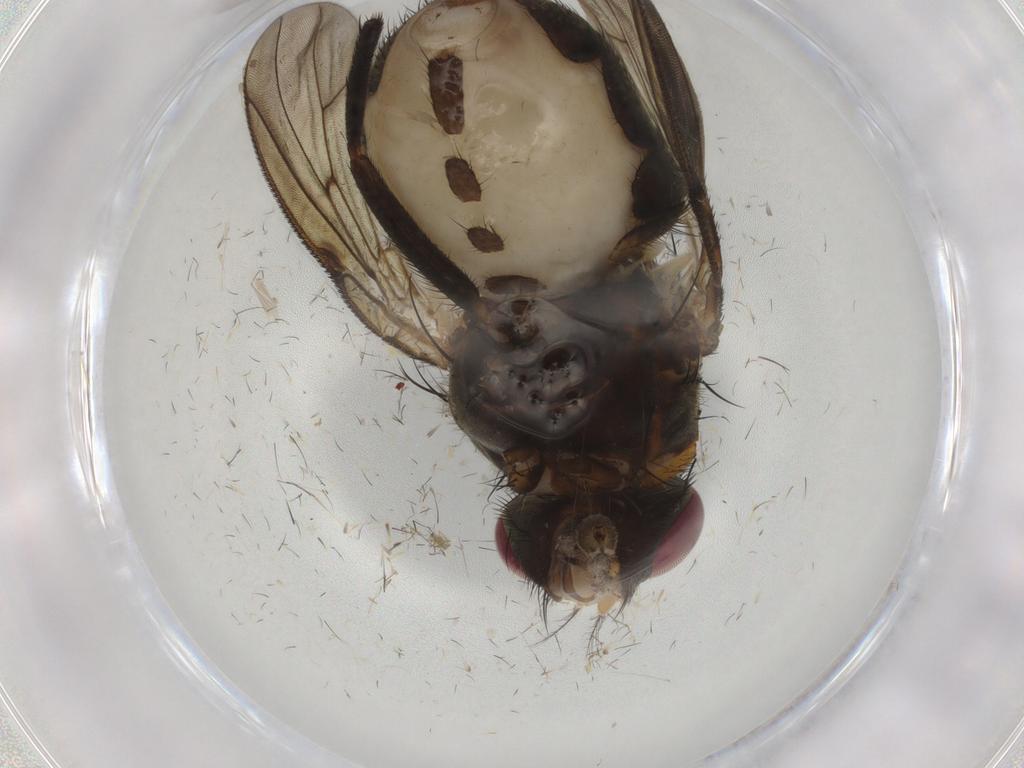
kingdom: Animalia
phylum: Arthropoda
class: Insecta
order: Diptera
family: Muscidae
